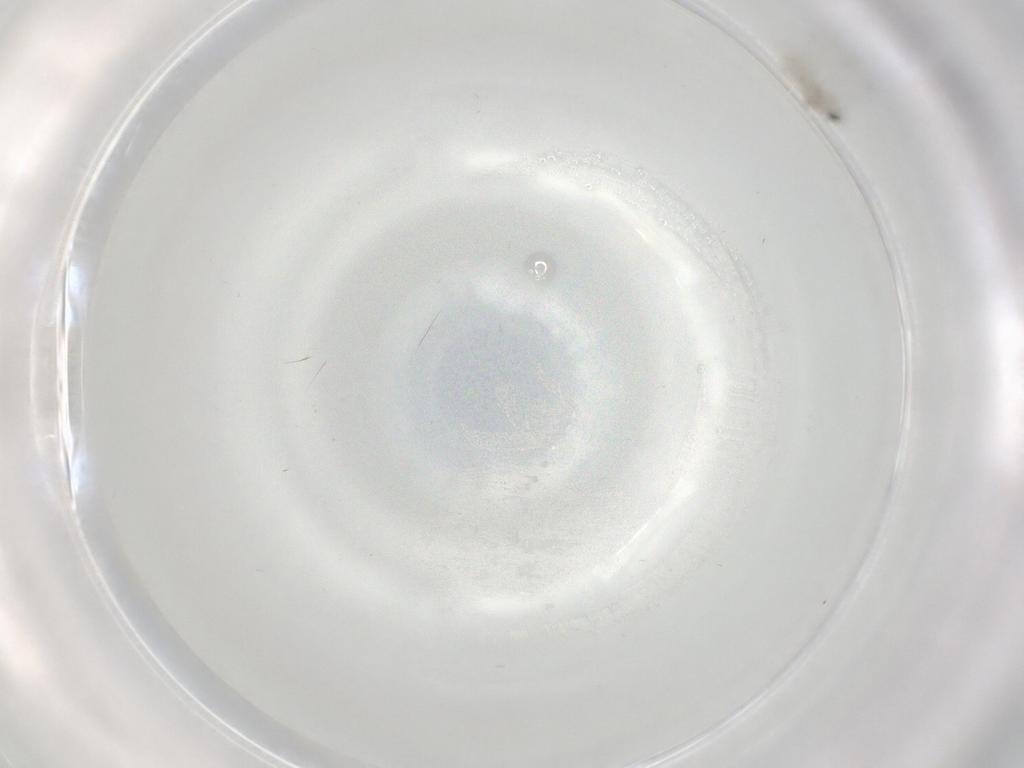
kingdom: Animalia
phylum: Arthropoda
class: Insecta
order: Diptera
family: Cecidomyiidae
